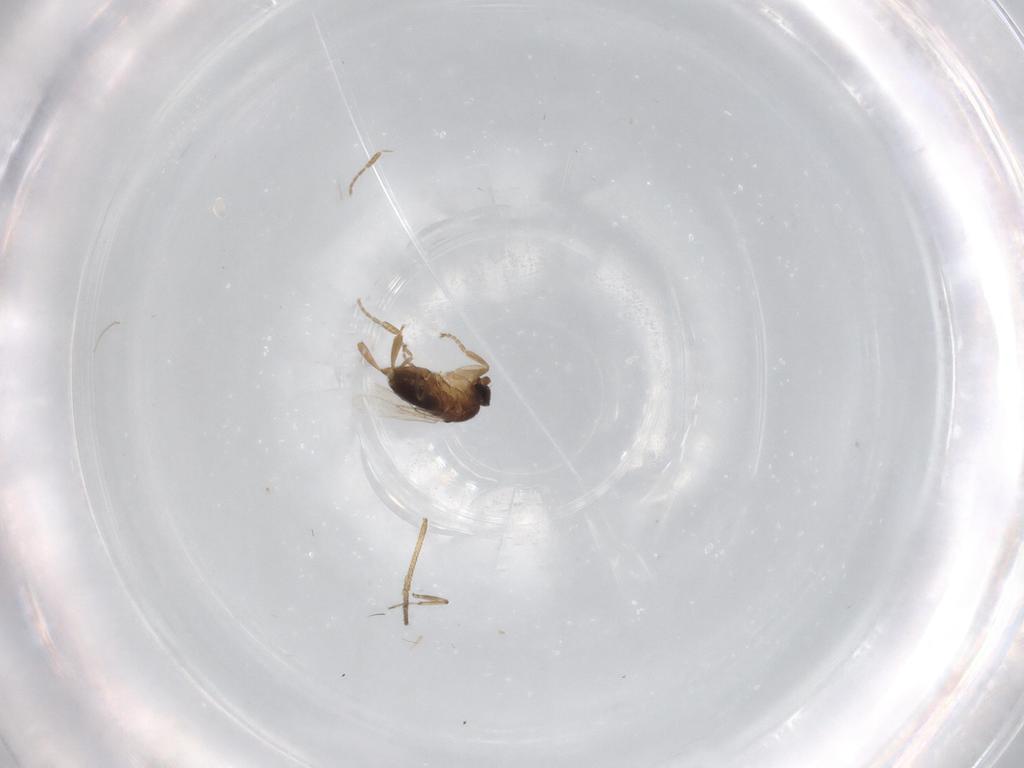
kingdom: Animalia
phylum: Arthropoda
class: Insecta
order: Diptera
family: Dolichopodidae
